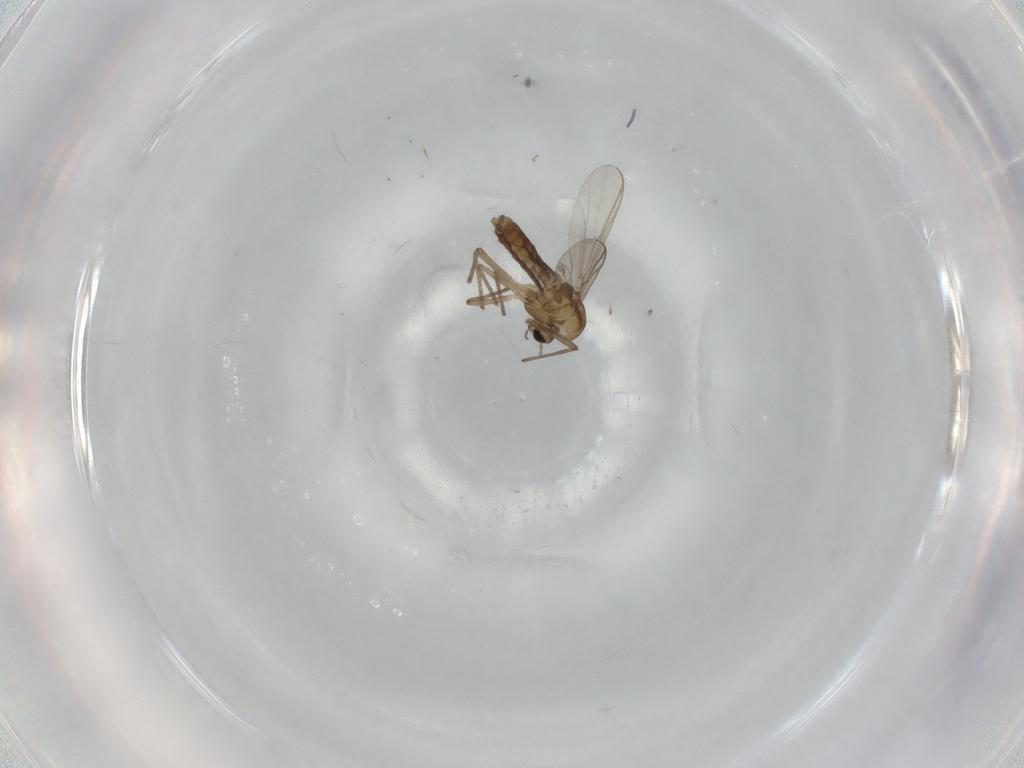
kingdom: Animalia
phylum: Arthropoda
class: Insecta
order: Diptera
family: Chironomidae
